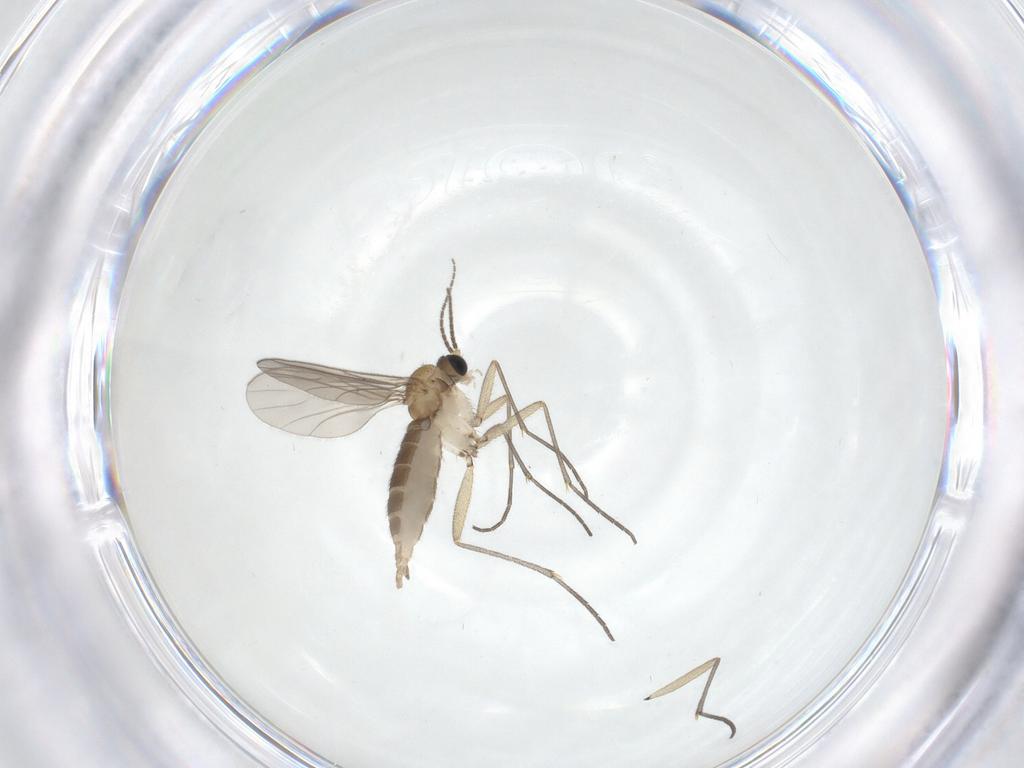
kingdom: Animalia
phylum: Arthropoda
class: Insecta
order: Diptera
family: Sciaridae
